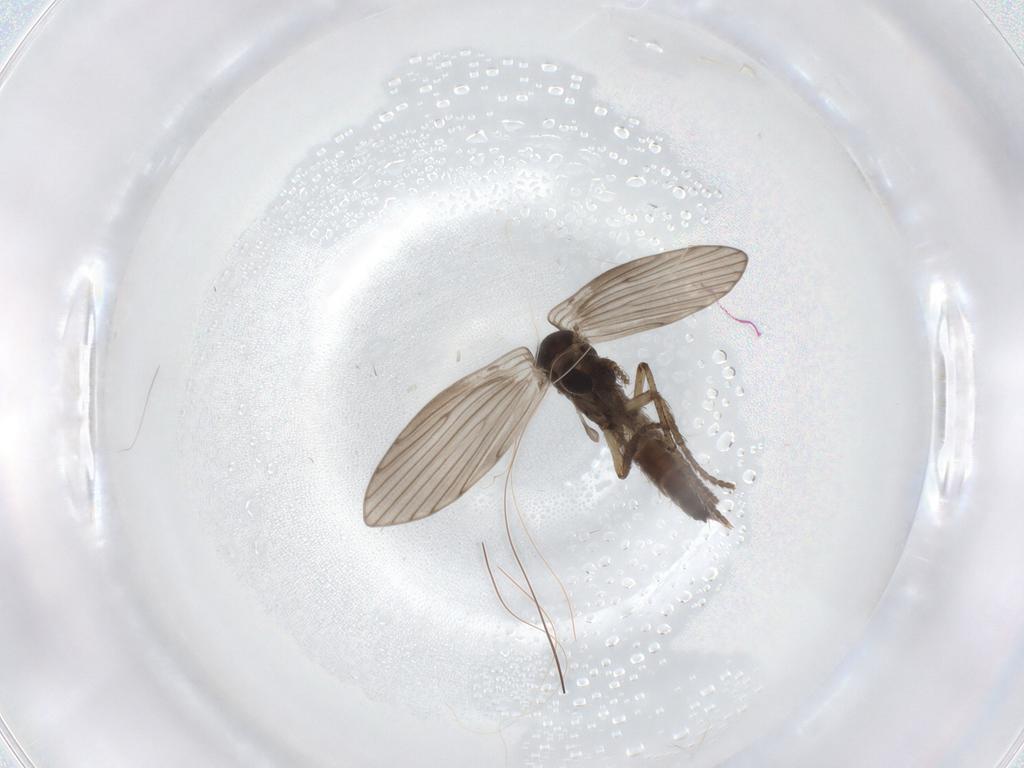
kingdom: Animalia
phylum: Arthropoda
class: Insecta
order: Diptera
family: Psychodidae
